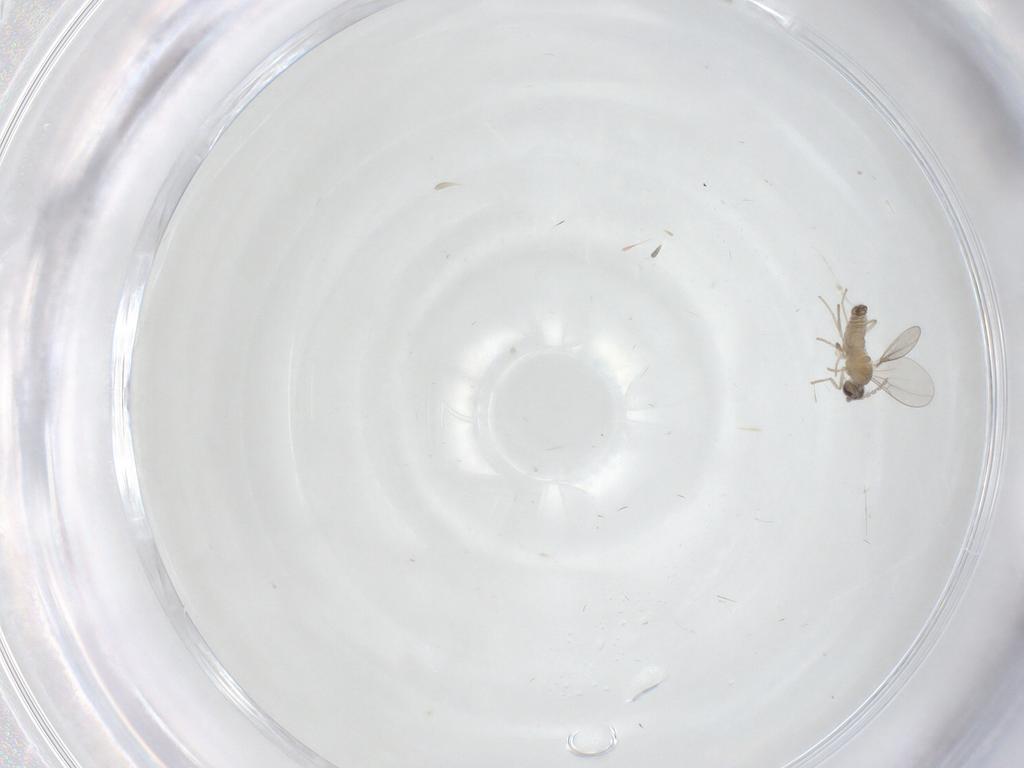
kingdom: Animalia
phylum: Arthropoda
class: Insecta
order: Diptera
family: Cecidomyiidae
